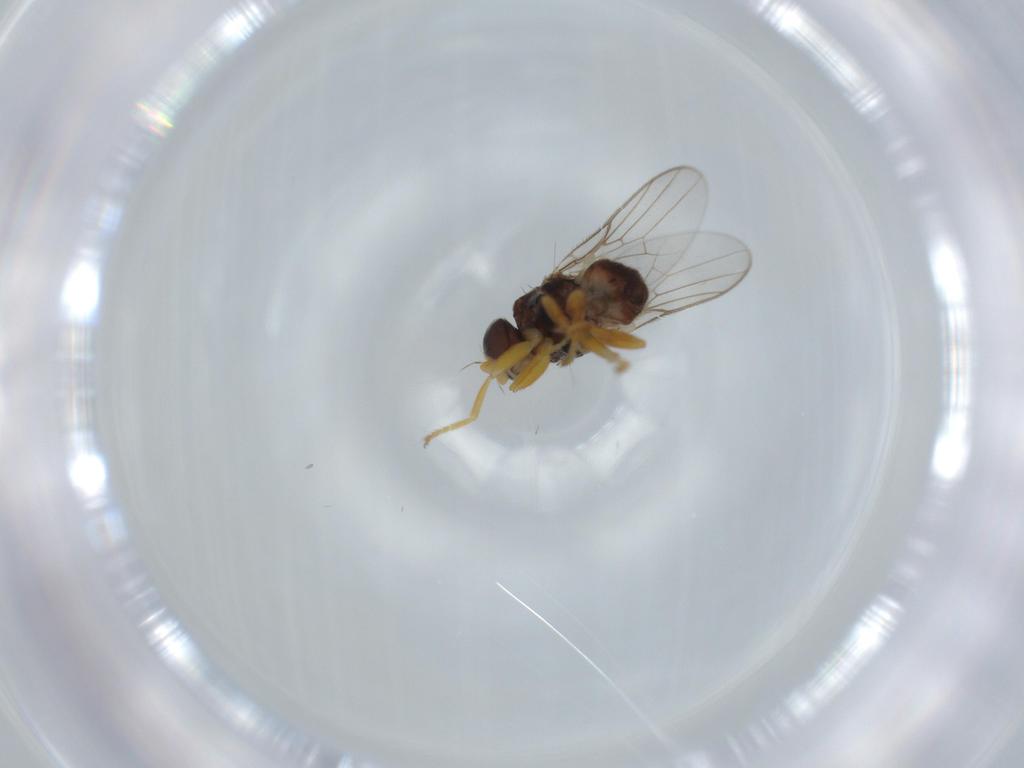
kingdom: Animalia
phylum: Arthropoda
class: Insecta
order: Diptera
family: Chloropidae
